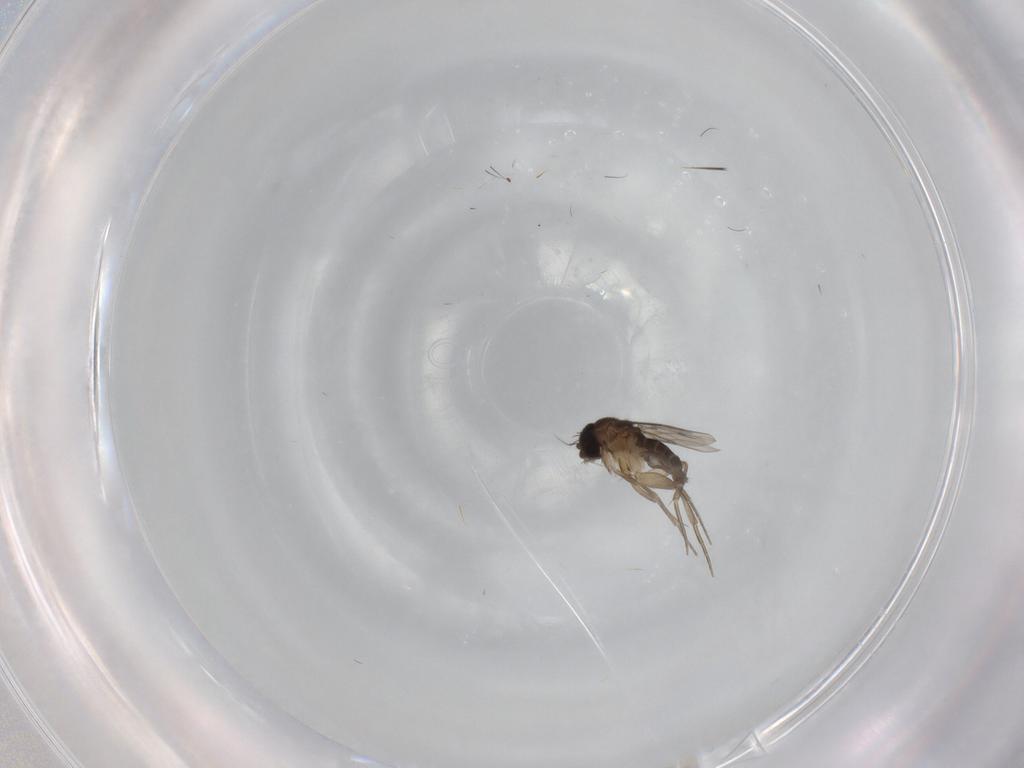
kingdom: Animalia
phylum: Arthropoda
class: Insecta
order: Diptera
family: Phoridae
